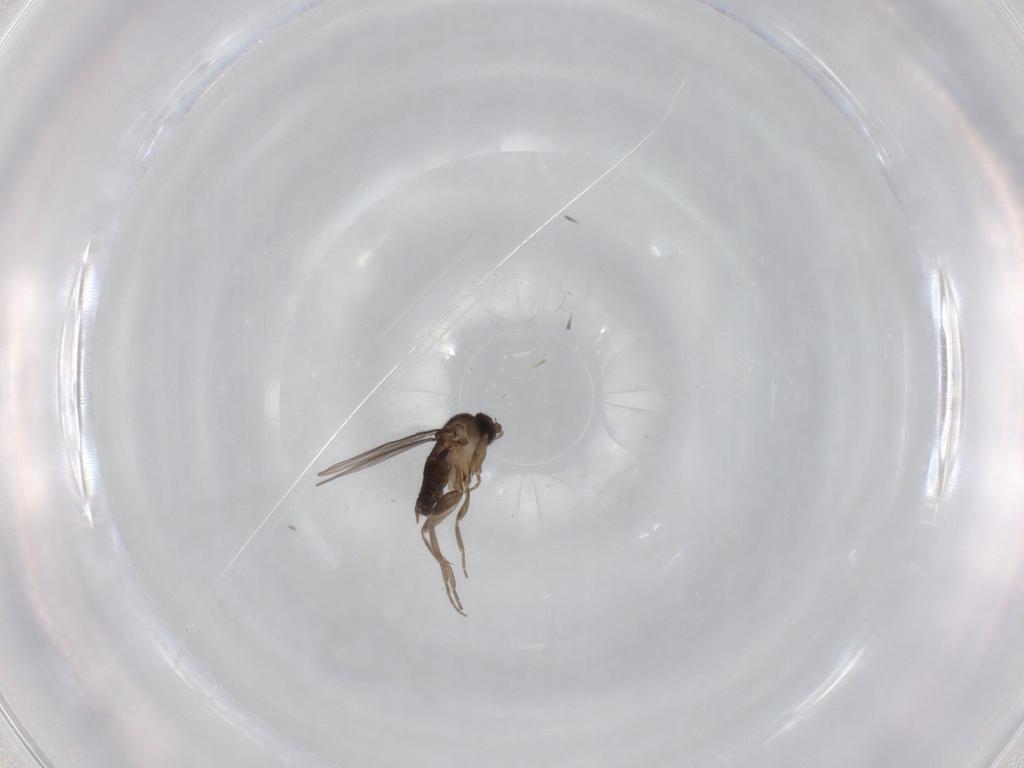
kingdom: Animalia
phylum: Arthropoda
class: Insecta
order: Diptera
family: Phoridae
